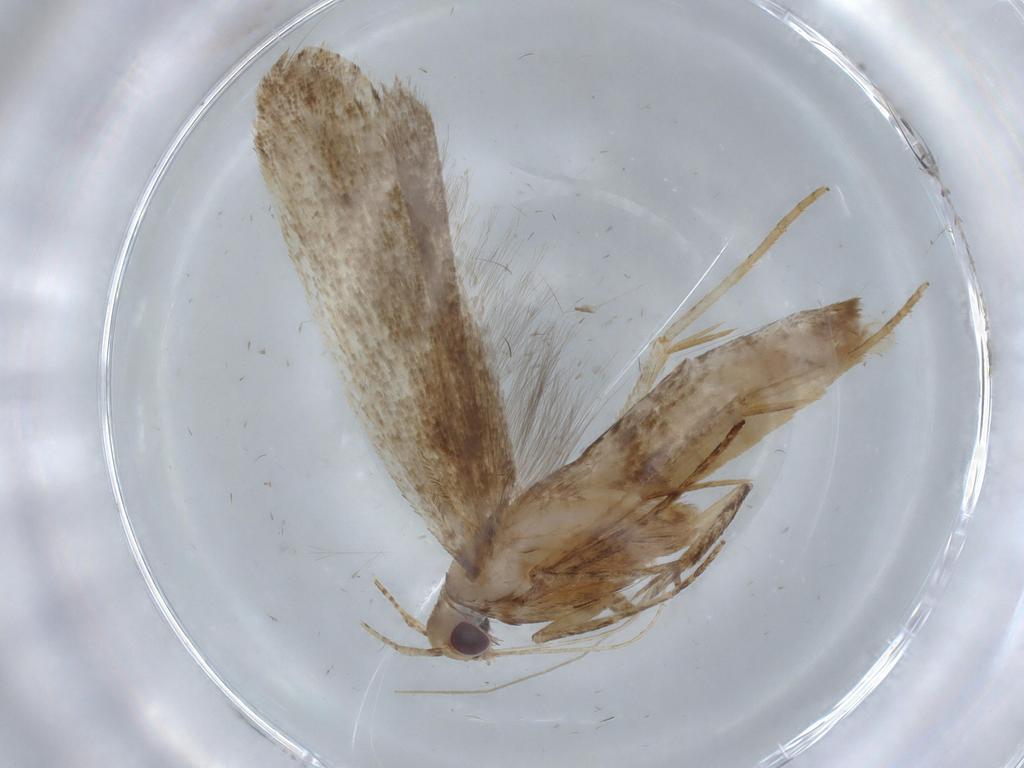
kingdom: Animalia
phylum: Arthropoda
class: Insecta
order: Lepidoptera
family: Gelechiidae
